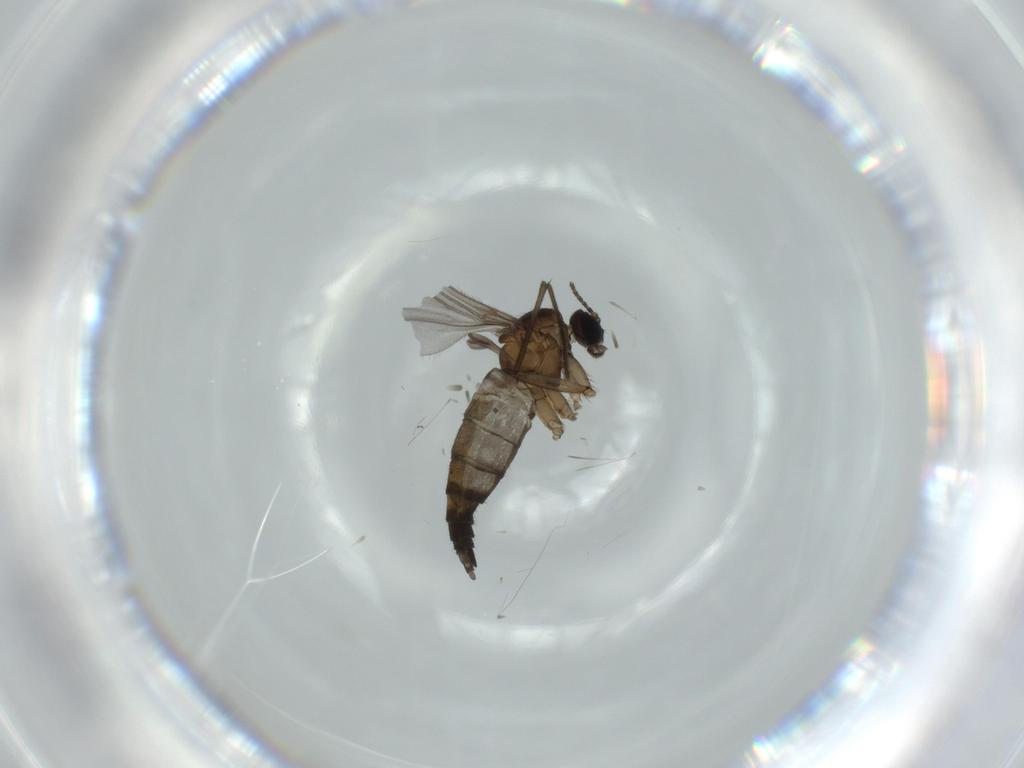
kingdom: Animalia
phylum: Arthropoda
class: Insecta
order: Diptera
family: Sciaridae
